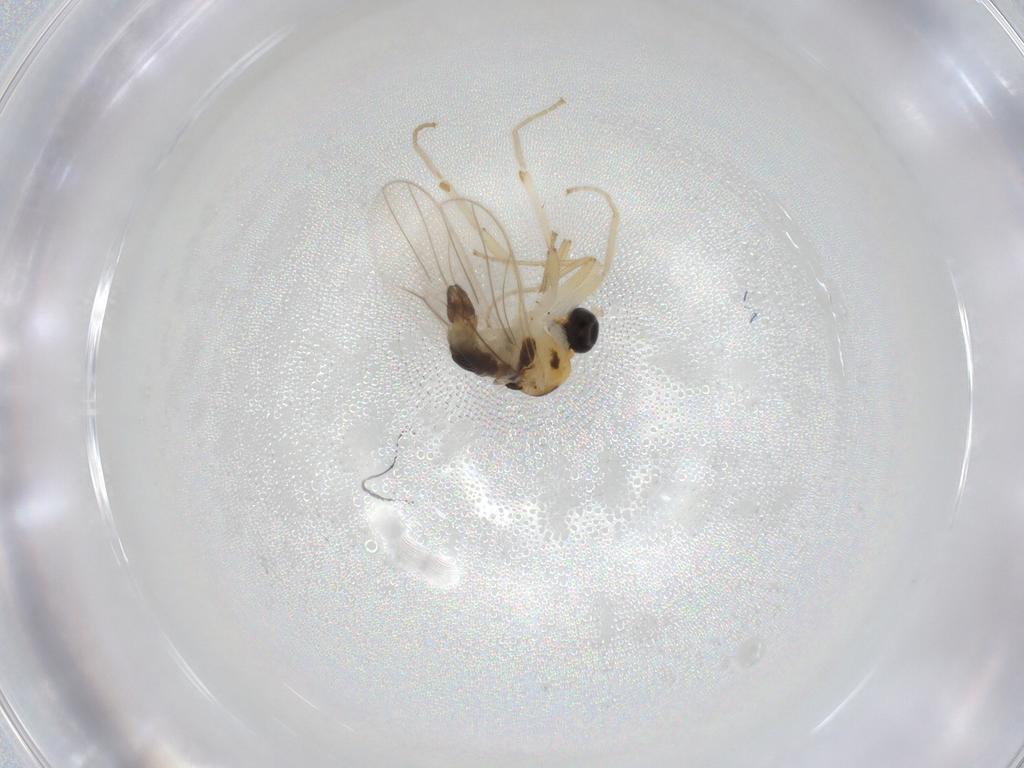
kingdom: Animalia
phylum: Arthropoda
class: Insecta
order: Diptera
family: Hybotidae
